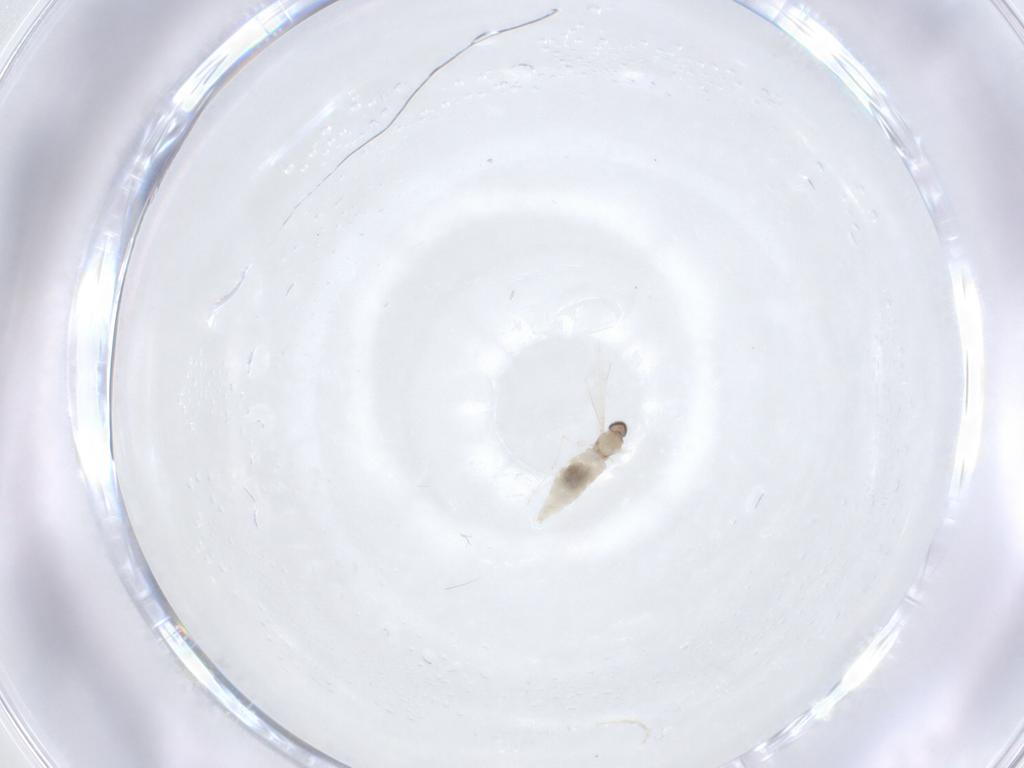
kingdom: Animalia
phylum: Arthropoda
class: Insecta
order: Diptera
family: Cecidomyiidae
